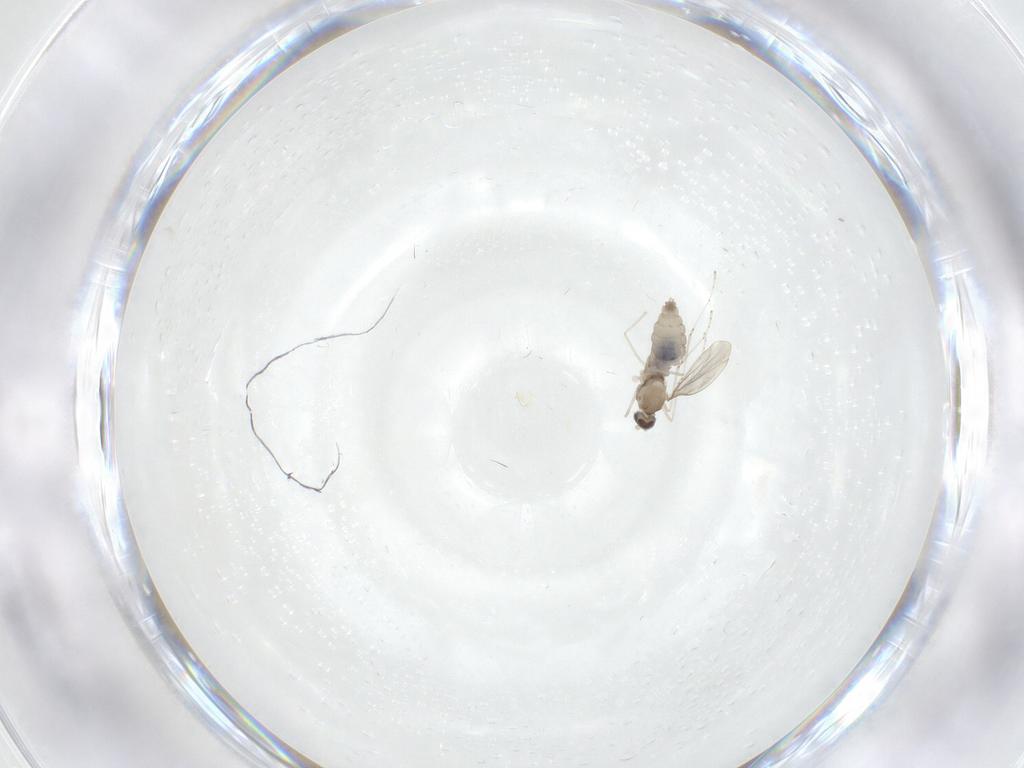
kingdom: Animalia
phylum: Arthropoda
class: Insecta
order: Diptera
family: Cecidomyiidae
